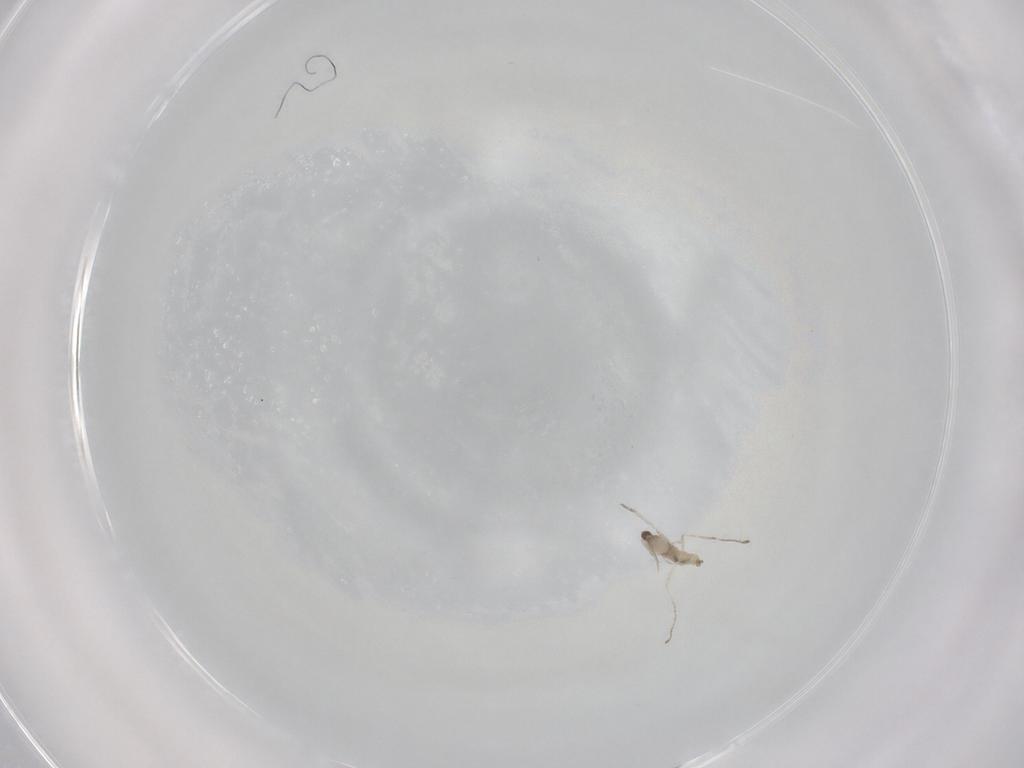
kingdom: Animalia
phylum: Arthropoda
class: Insecta
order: Diptera
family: Cecidomyiidae
